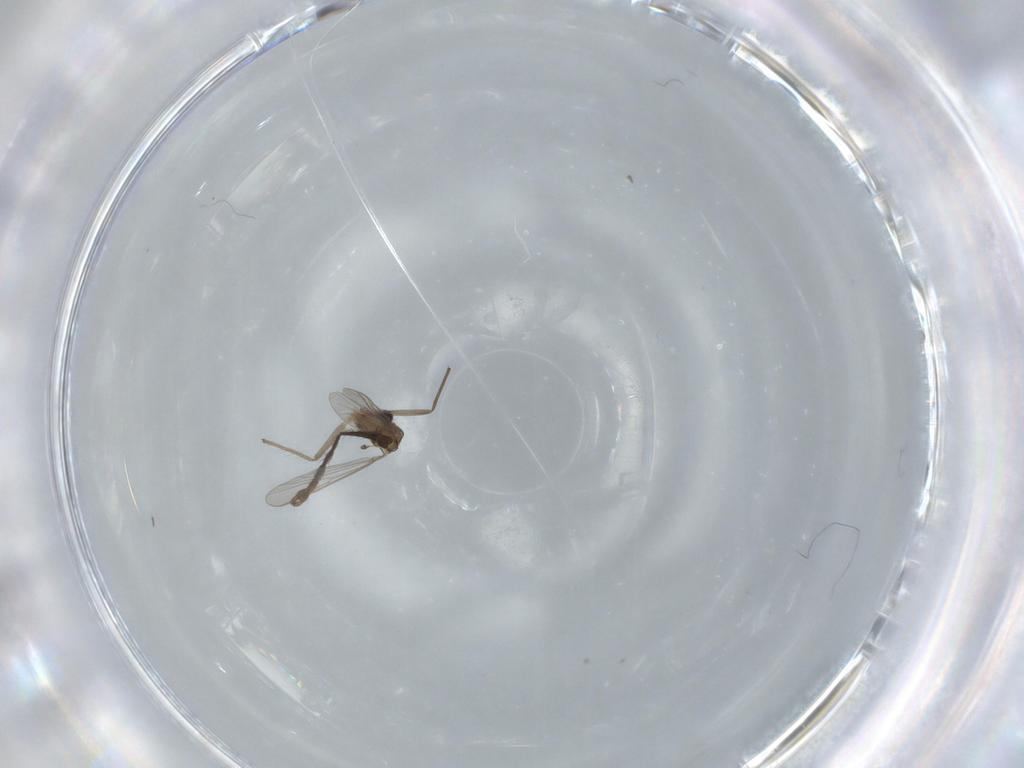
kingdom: Animalia
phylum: Arthropoda
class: Insecta
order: Diptera
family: Chironomidae
